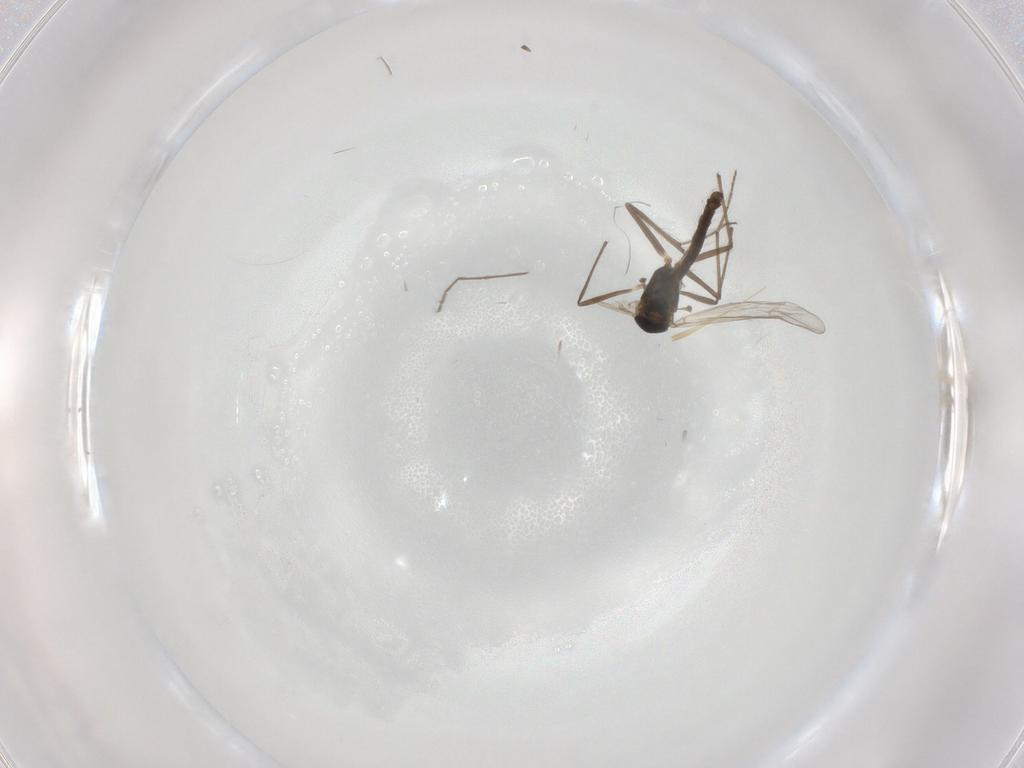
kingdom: Animalia
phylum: Arthropoda
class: Insecta
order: Diptera
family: Chironomidae
